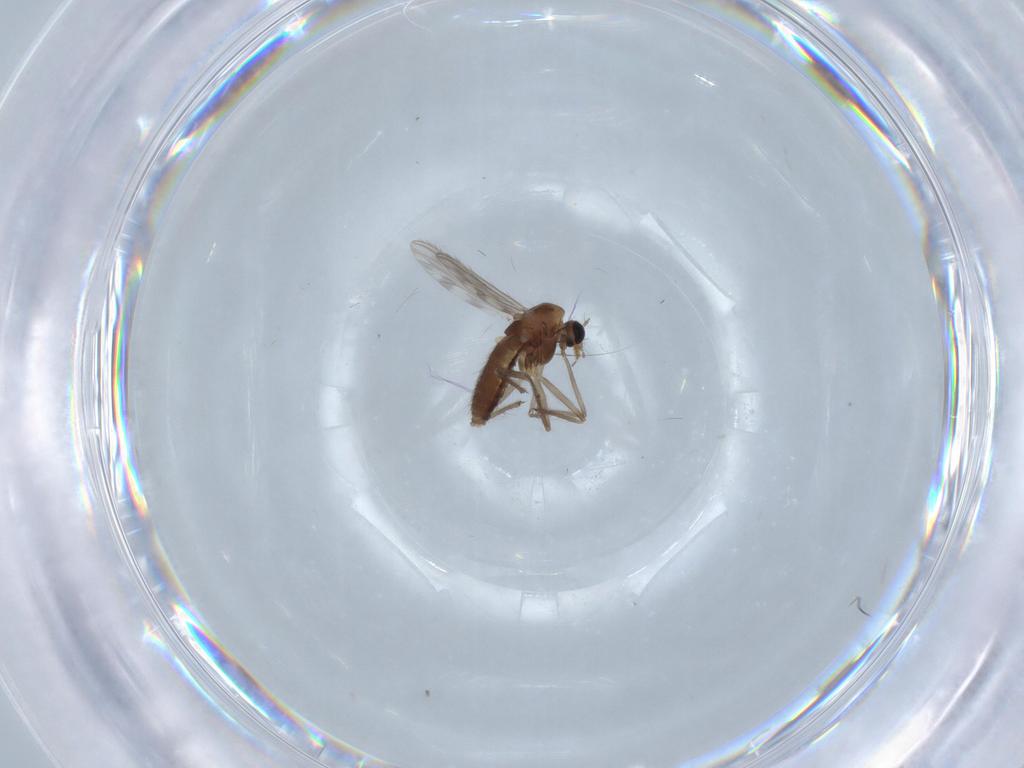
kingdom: Animalia
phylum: Arthropoda
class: Insecta
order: Diptera
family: Chironomidae
